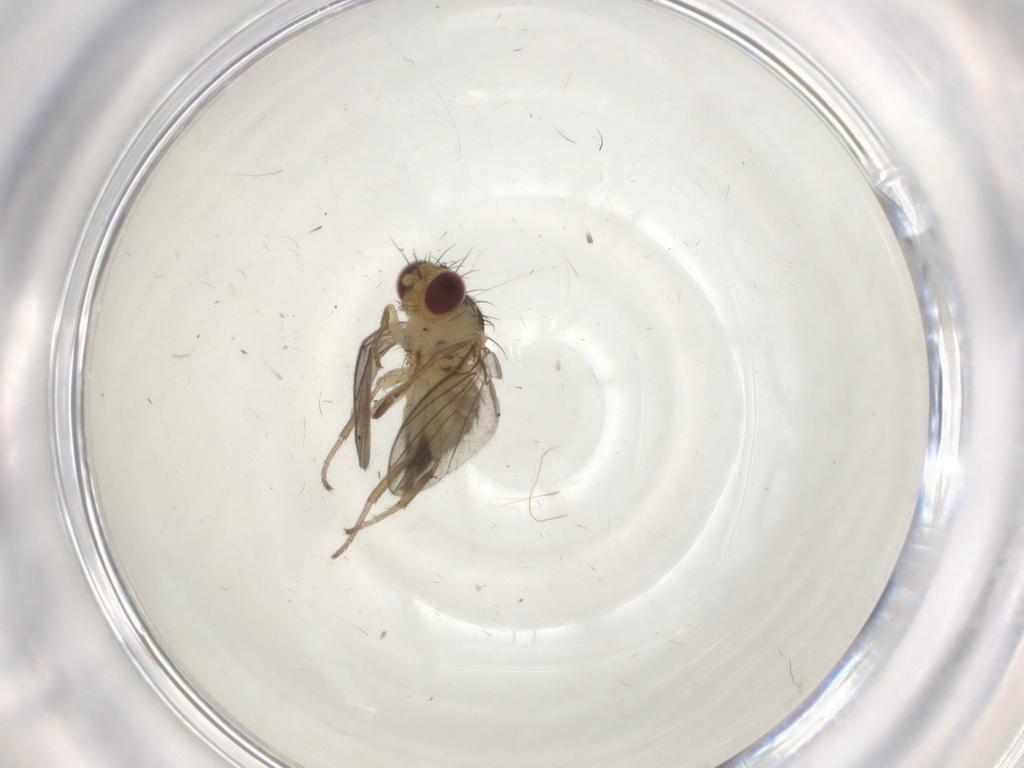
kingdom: Animalia
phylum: Arthropoda
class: Insecta
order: Diptera
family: Agromyzidae
